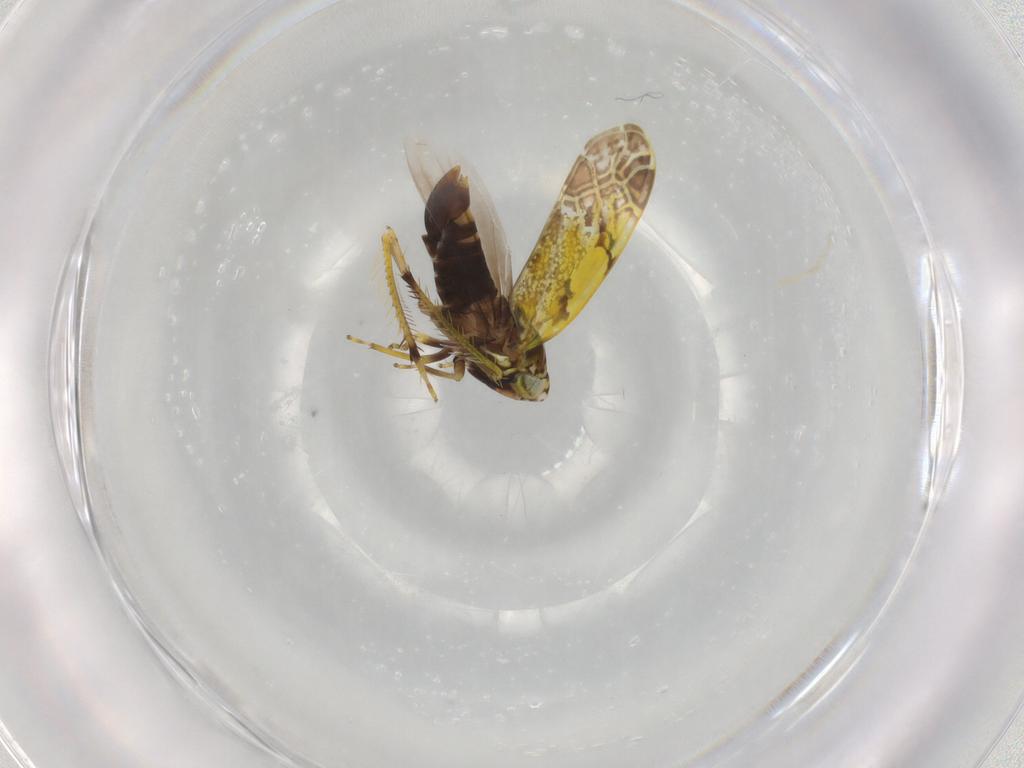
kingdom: Animalia
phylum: Arthropoda
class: Insecta
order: Hemiptera
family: Cicadellidae
